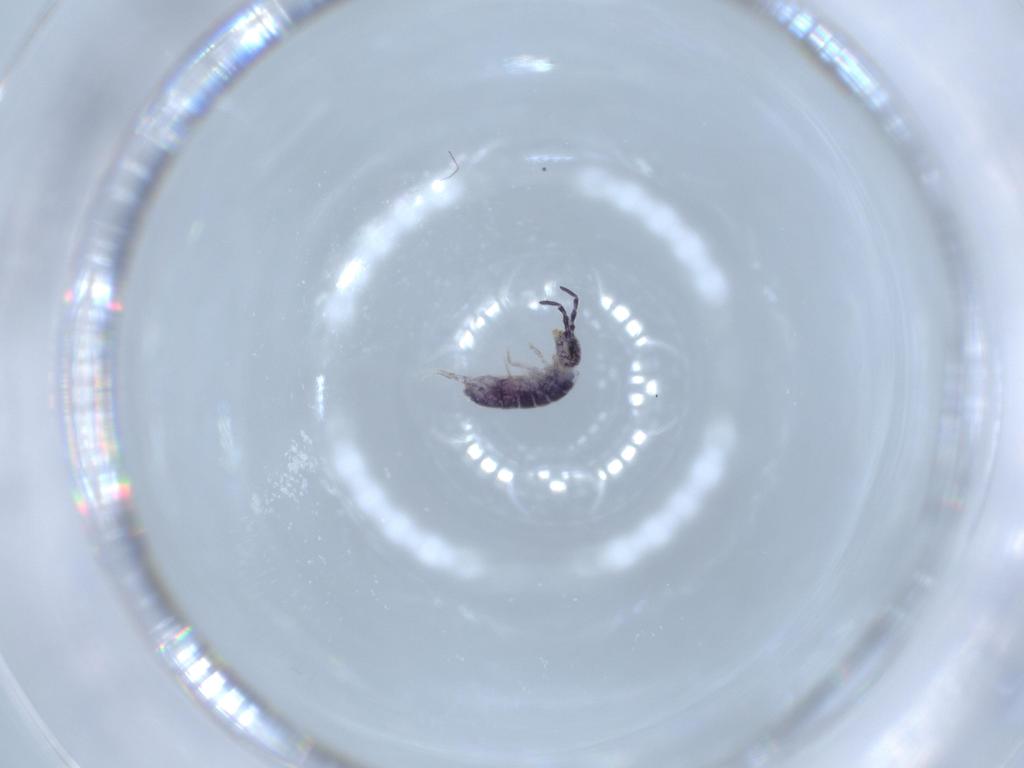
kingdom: Animalia
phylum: Arthropoda
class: Collembola
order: Entomobryomorpha
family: Isotomidae
